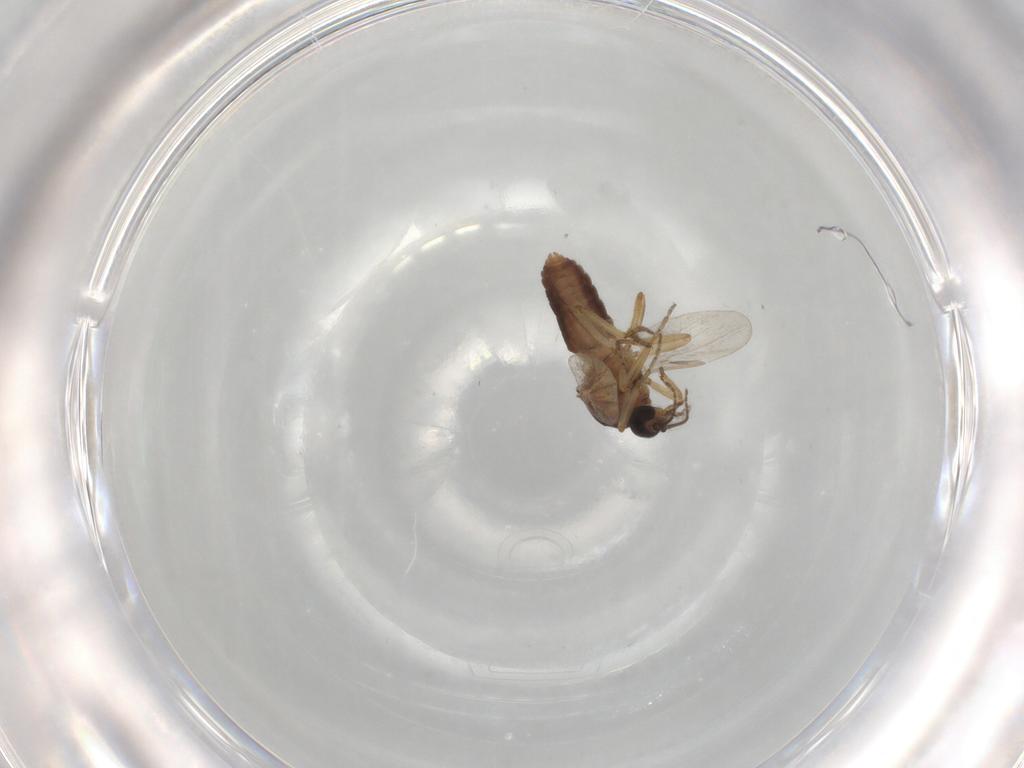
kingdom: Animalia
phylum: Arthropoda
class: Insecta
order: Diptera
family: Ceratopogonidae
